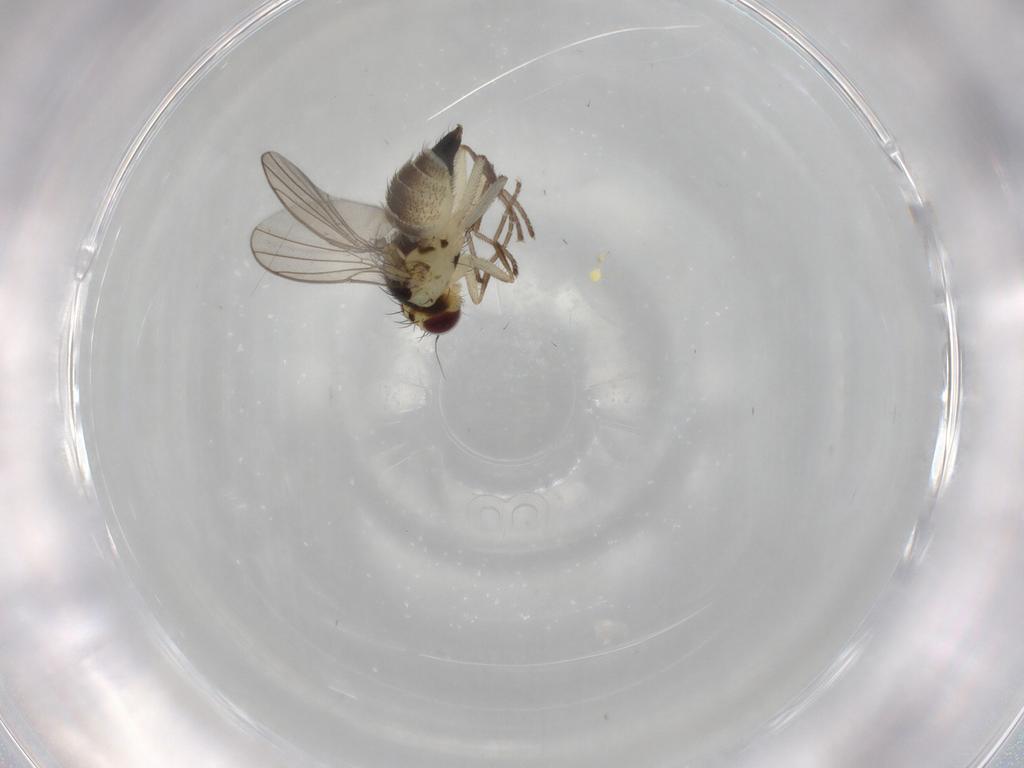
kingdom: Animalia
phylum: Arthropoda
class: Insecta
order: Diptera
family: Agromyzidae
